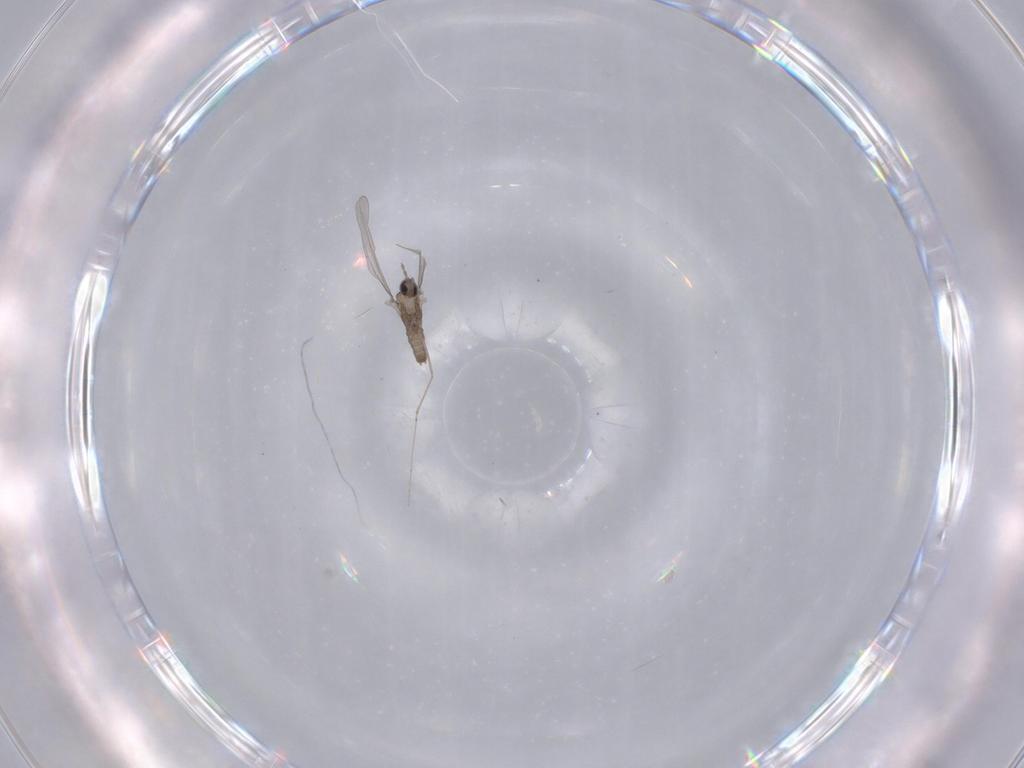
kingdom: Animalia
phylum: Arthropoda
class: Insecta
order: Diptera
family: Cecidomyiidae
